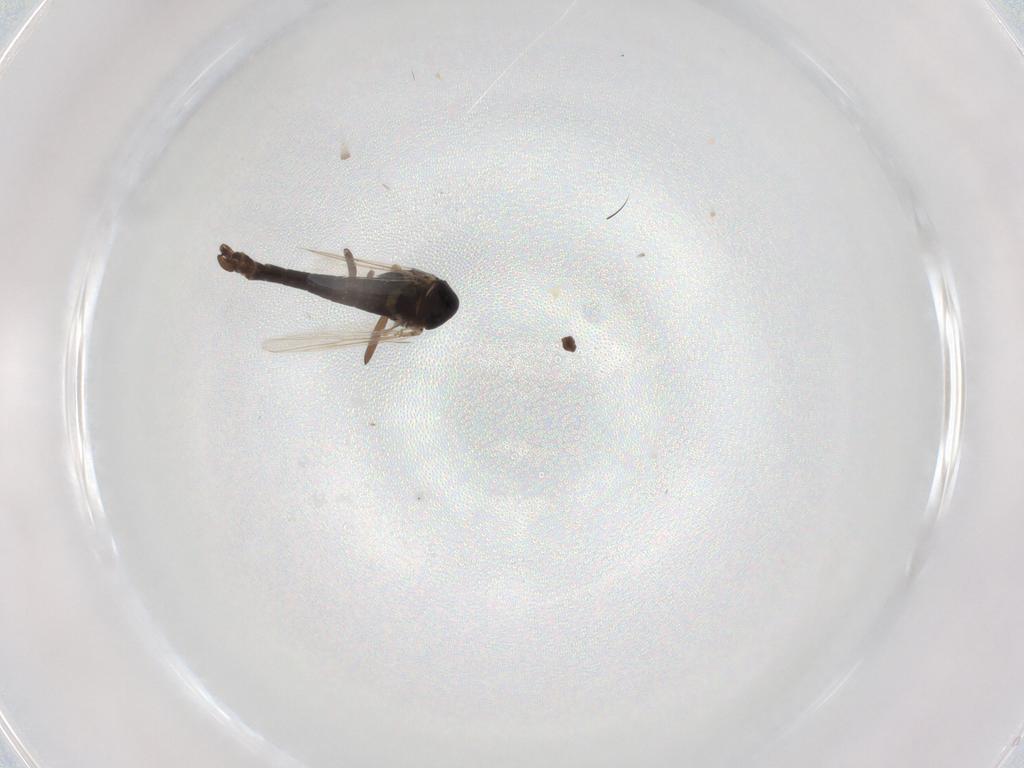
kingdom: Animalia
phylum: Arthropoda
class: Insecta
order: Diptera
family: Chironomidae
